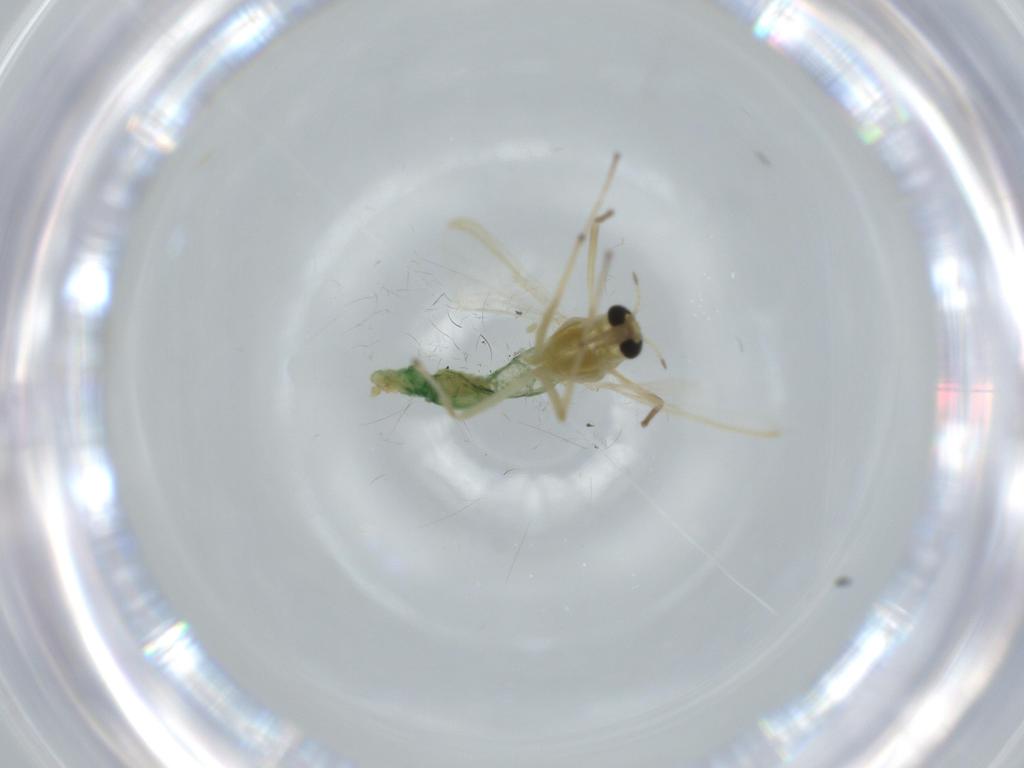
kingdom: Animalia
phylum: Arthropoda
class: Insecta
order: Diptera
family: Chironomidae
